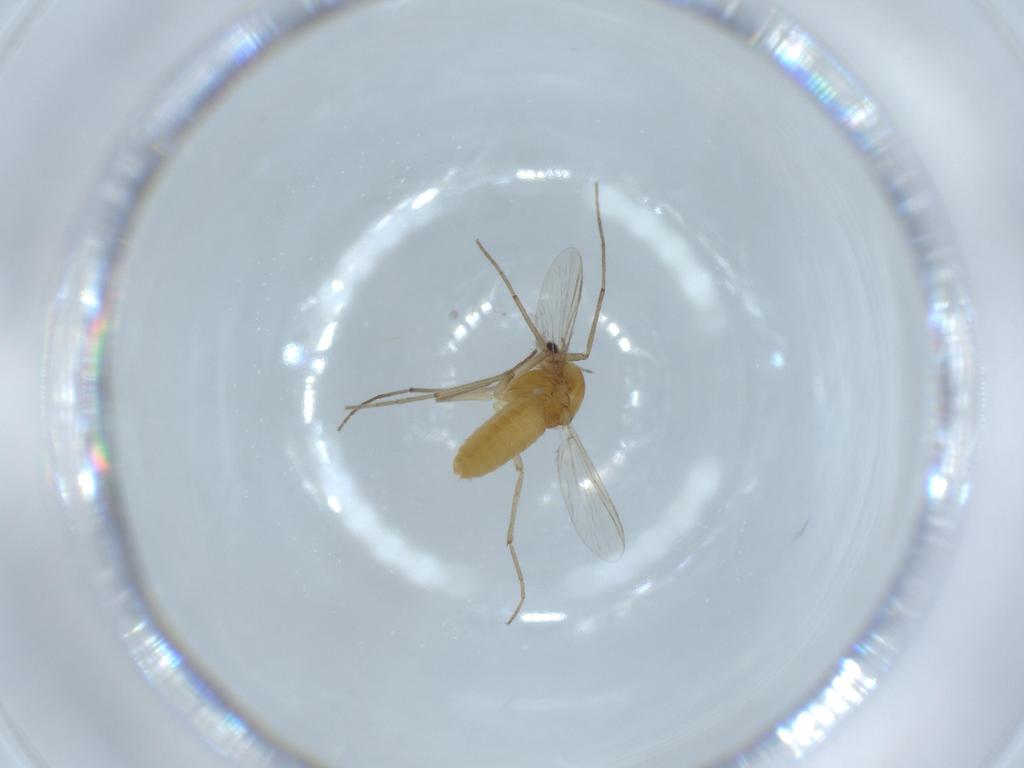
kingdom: Animalia
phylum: Arthropoda
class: Insecta
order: Diptera
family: Chironomidae
